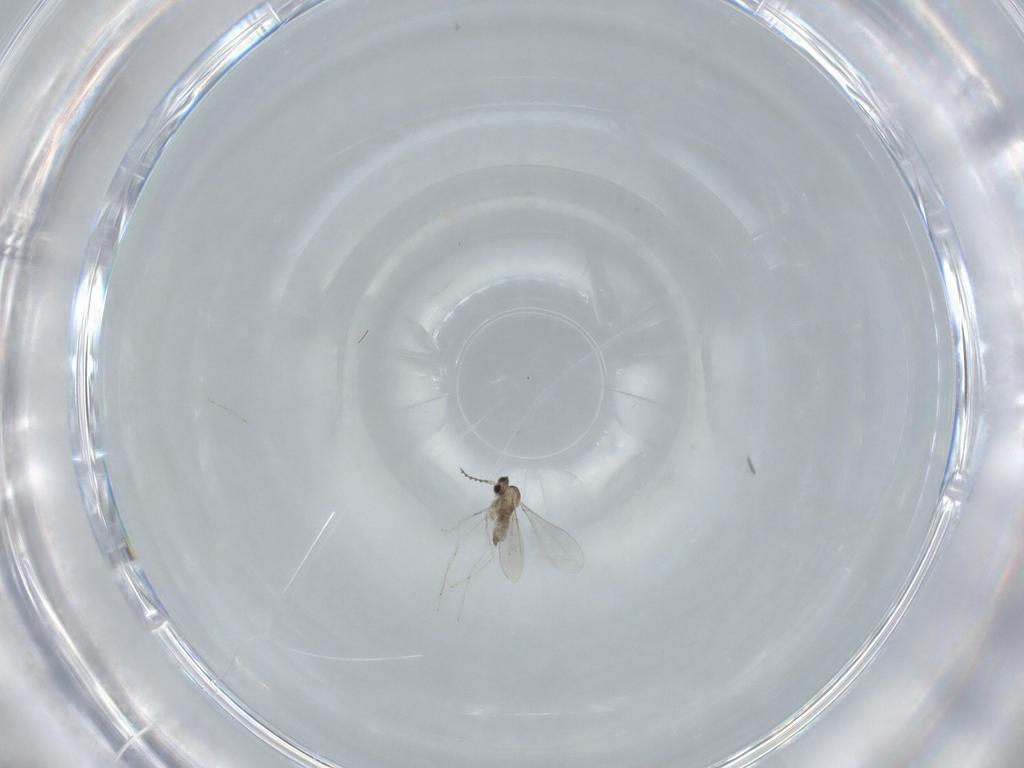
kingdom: Animalia
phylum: Arthropoda
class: Insecta
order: Diptera
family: Cecidomyiidae
